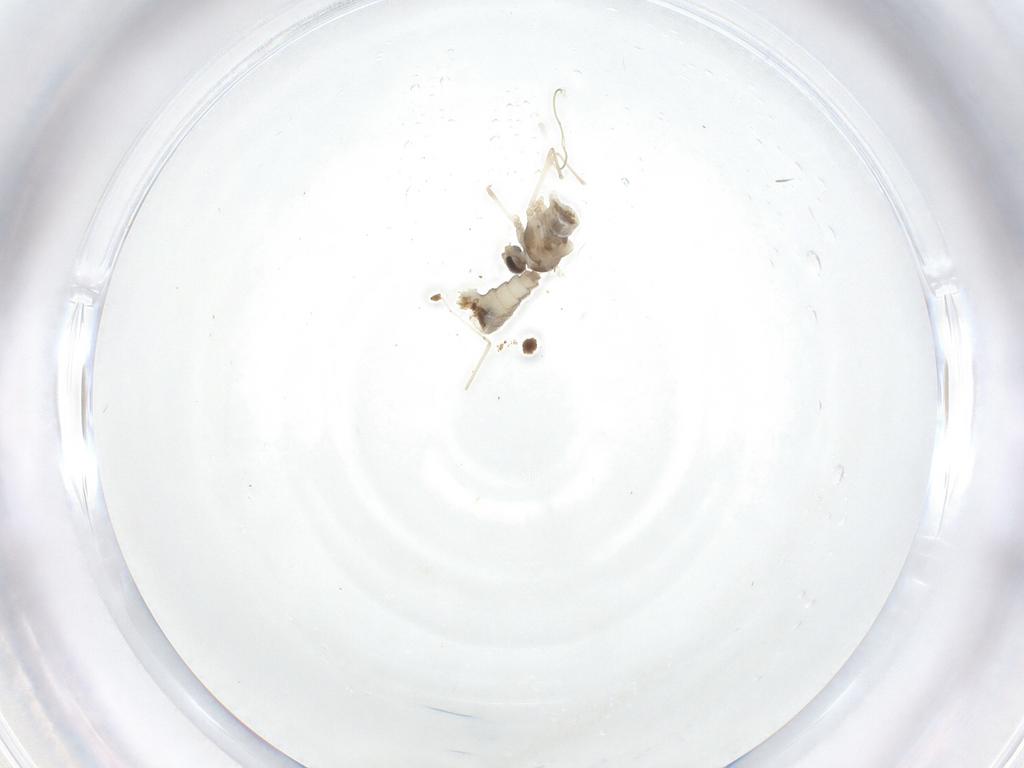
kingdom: Animalia
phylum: Arthropoda
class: Insecta
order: Diptera
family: Cecidomyiidae
